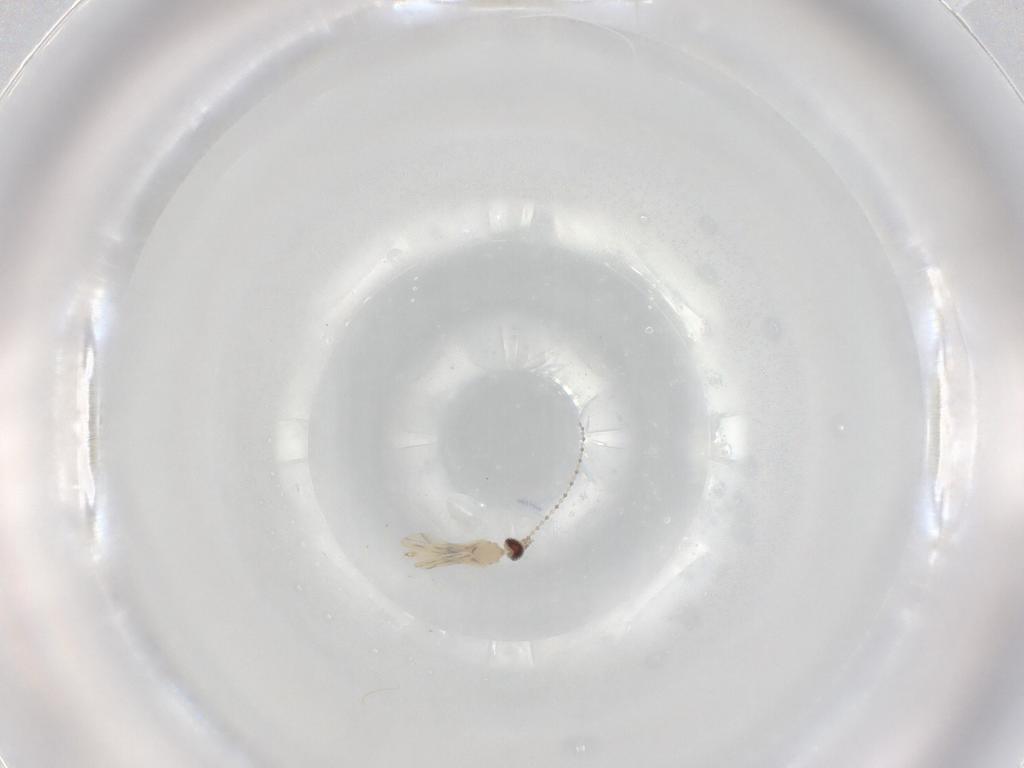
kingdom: Animalia
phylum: Arthropoda
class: Insecta
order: Diptera
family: Cecidomyiidae
